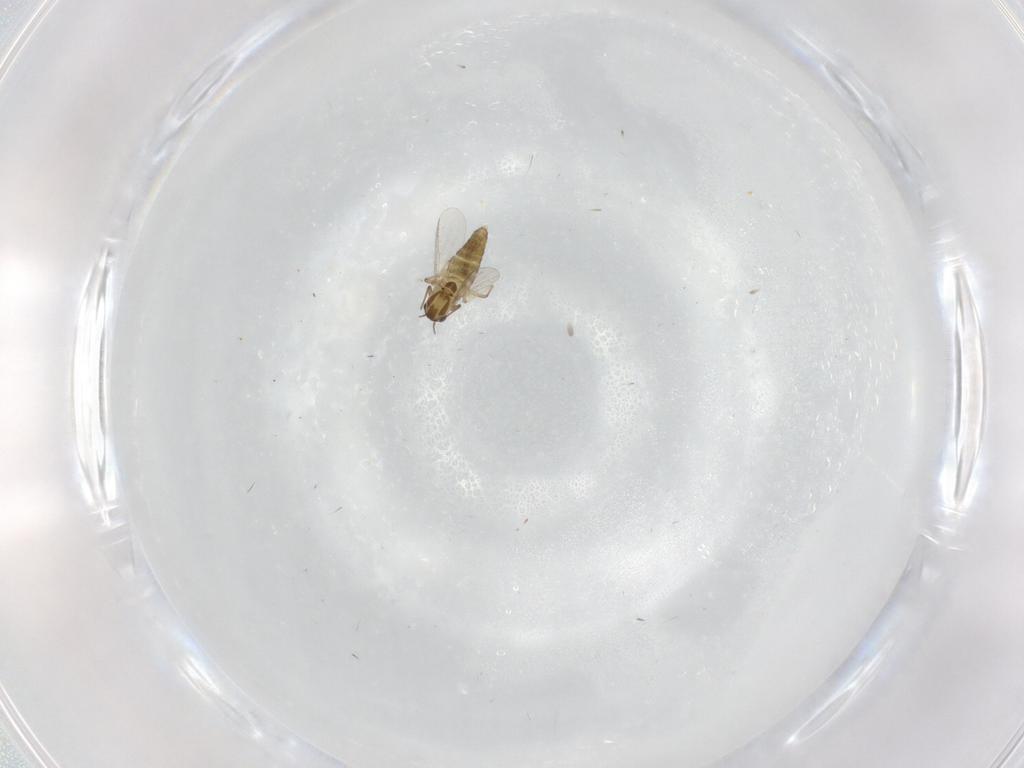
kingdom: Animalia
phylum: Arthropoda
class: Insecta
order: Diptera
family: Chironomidae
